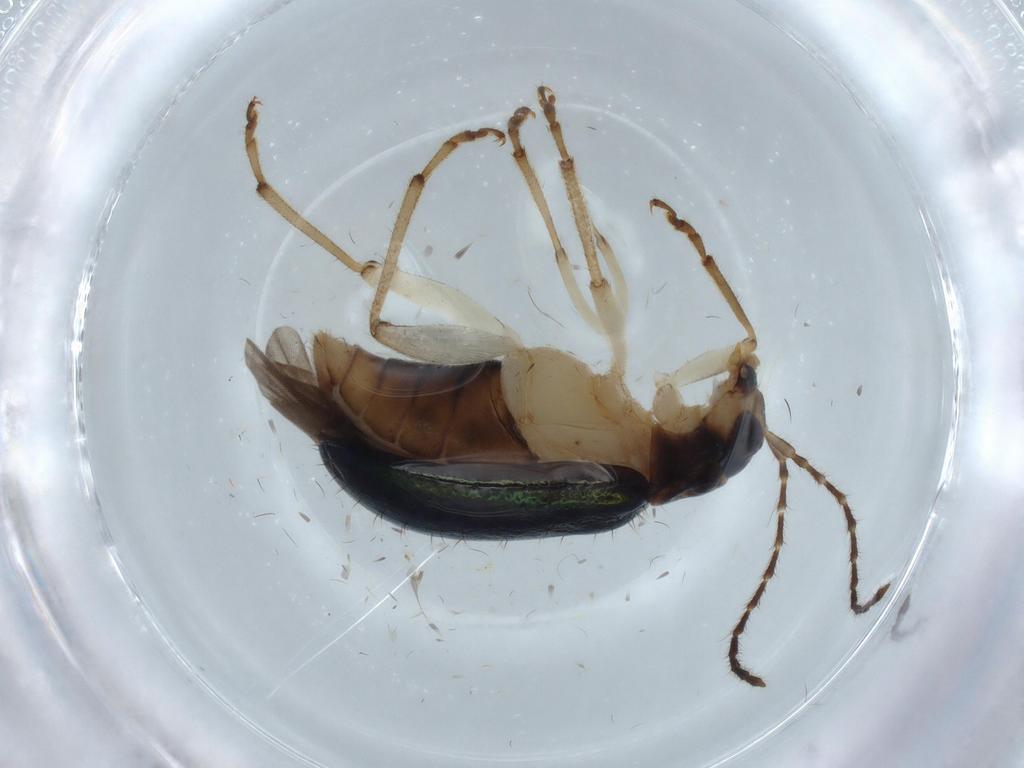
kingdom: Animalia
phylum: Arthropoda
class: Insecta
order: Coleoptera
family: Chrysomelidae
